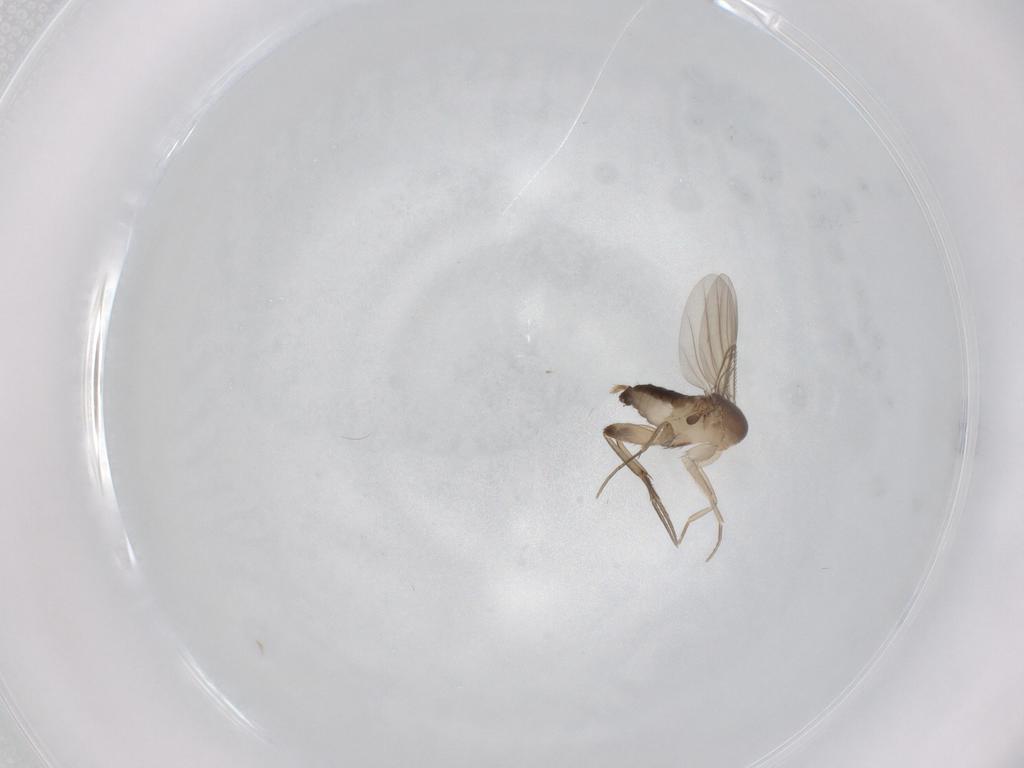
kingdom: Animalia
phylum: Arthropoda
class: Insecta
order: Diptera
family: Phoridae
